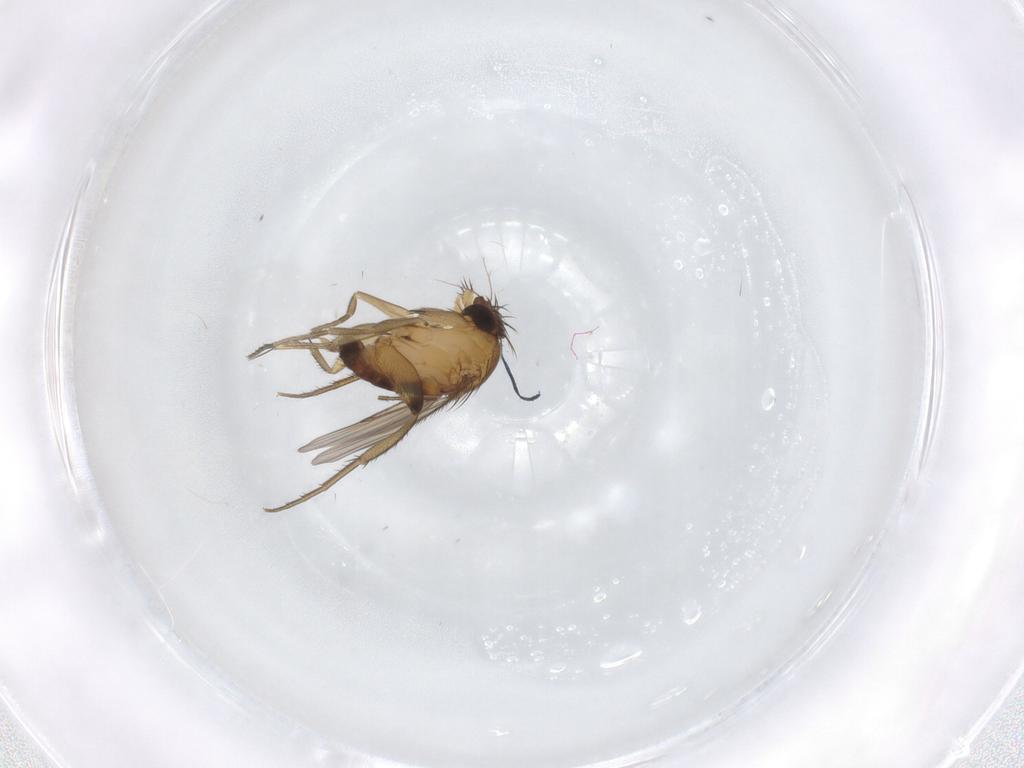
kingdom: Animalia
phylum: Arthropoda
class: Insecta
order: Diptera
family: Phoridae
